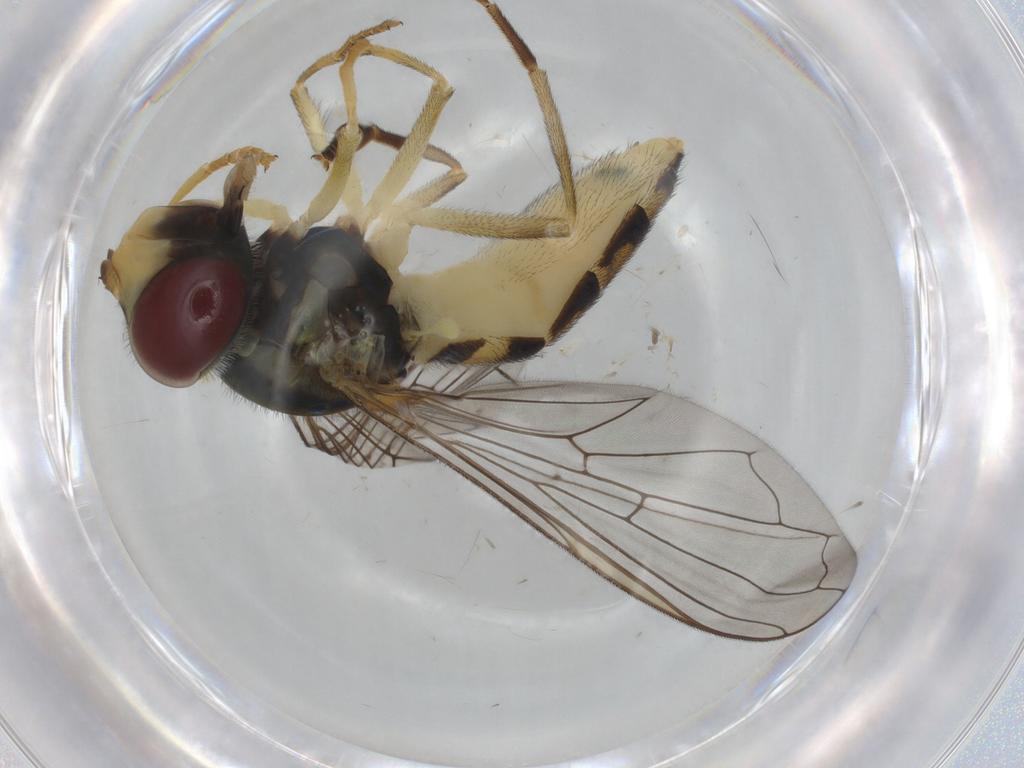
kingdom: Animalia
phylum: Arthropoda
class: Insecta
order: Diptera
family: Syrphidae
